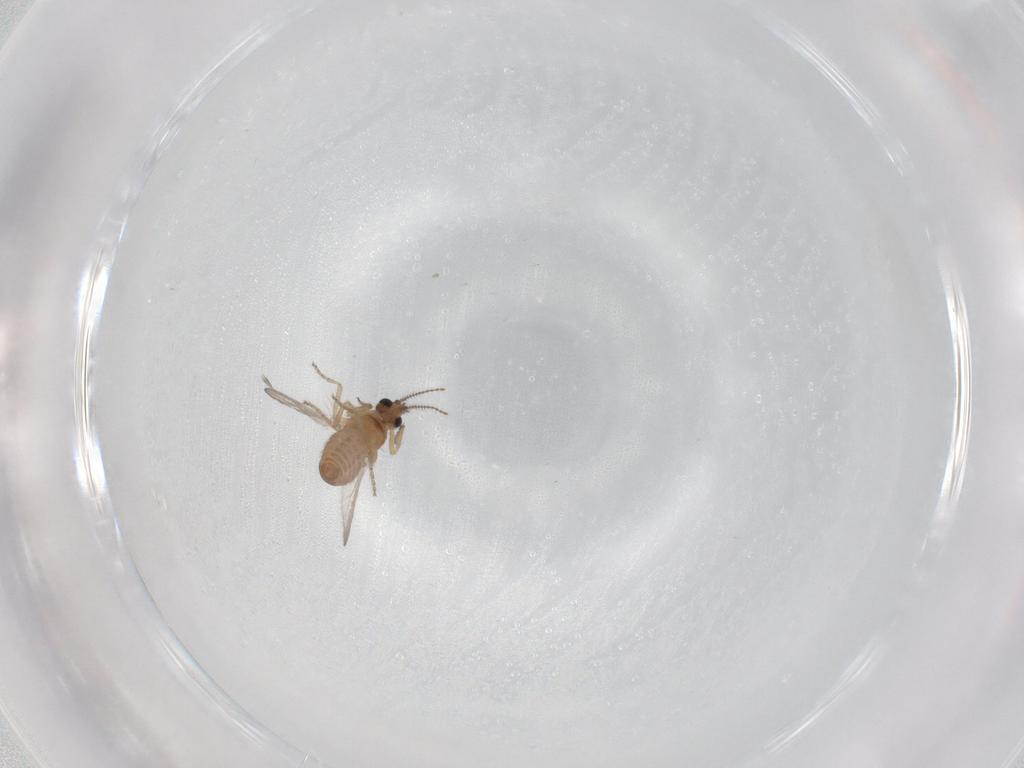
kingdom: Animalia
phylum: Arthropoda
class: Insecta
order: Diptera
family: Ceratopogonidae
